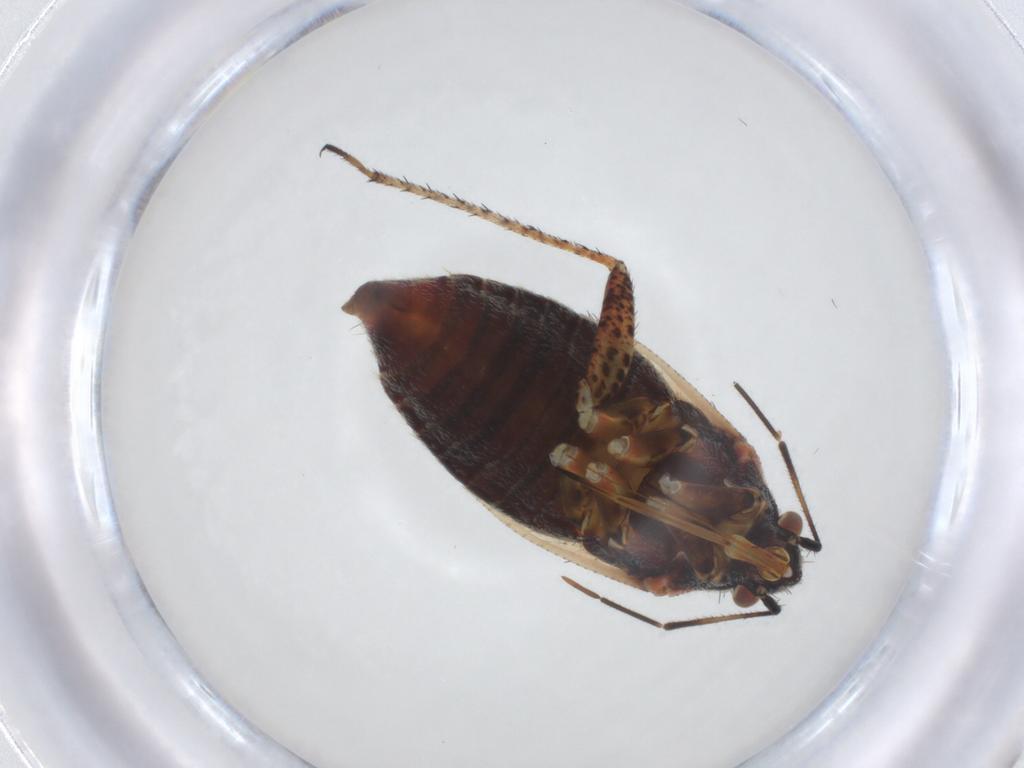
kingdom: Animalia
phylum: Arthropoda
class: Insecta
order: Hemiptera
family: Miridae
